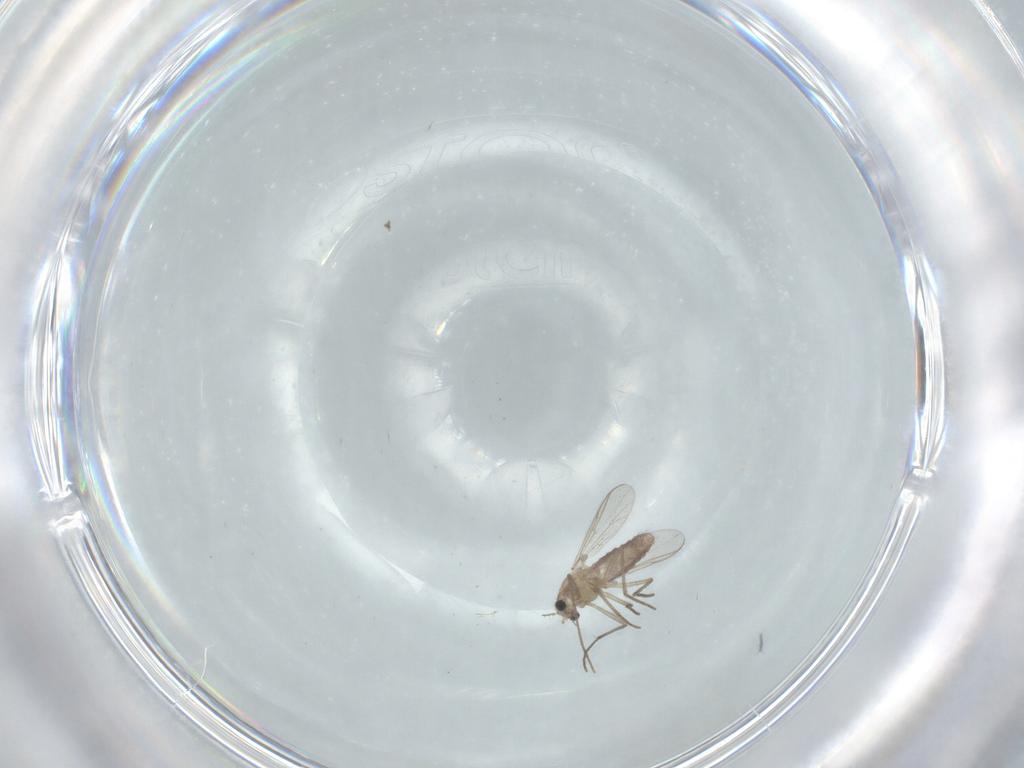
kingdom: Animalia
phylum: Arthropoda
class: Insecta
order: Diptera
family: Chironomidae
